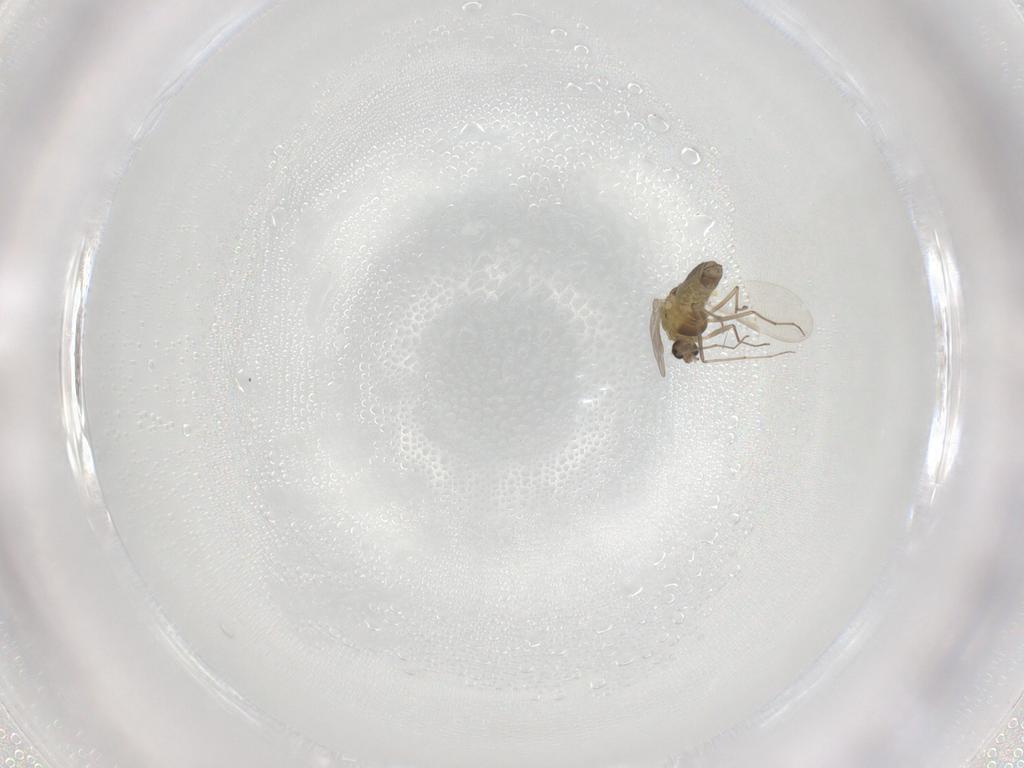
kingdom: Animalia
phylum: Arthropoda
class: Insecta
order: Diptera
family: Chironomidae
